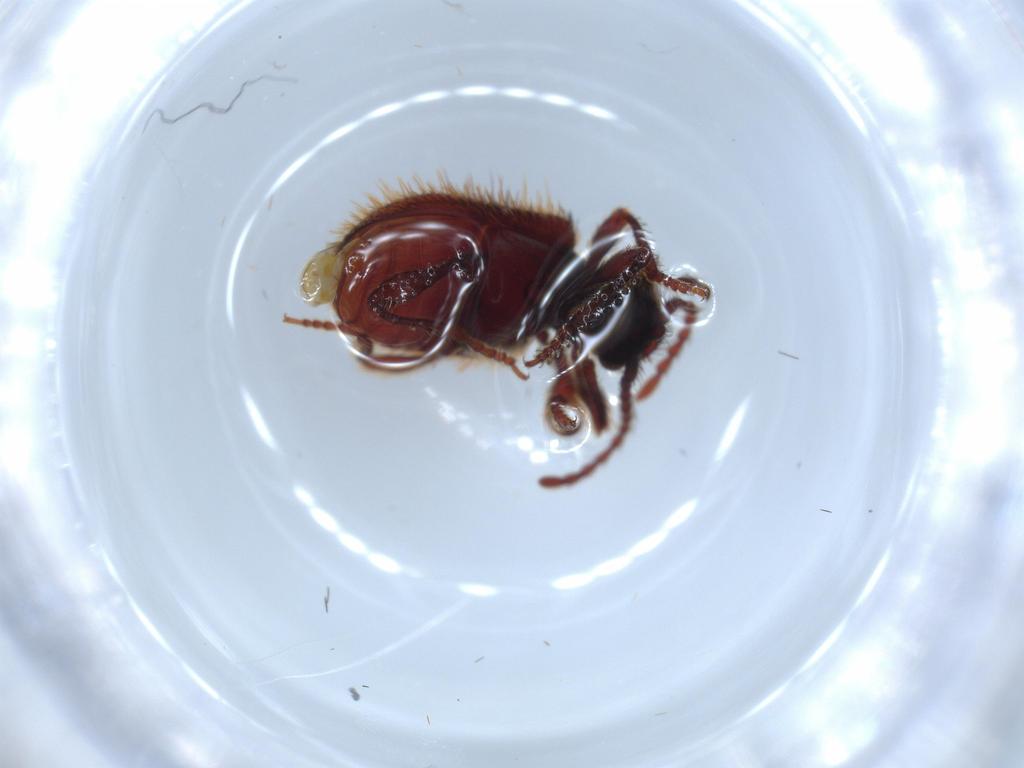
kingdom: Animalia
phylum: Arthropoda
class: Insecta
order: Coleoptera
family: Ptinidae
